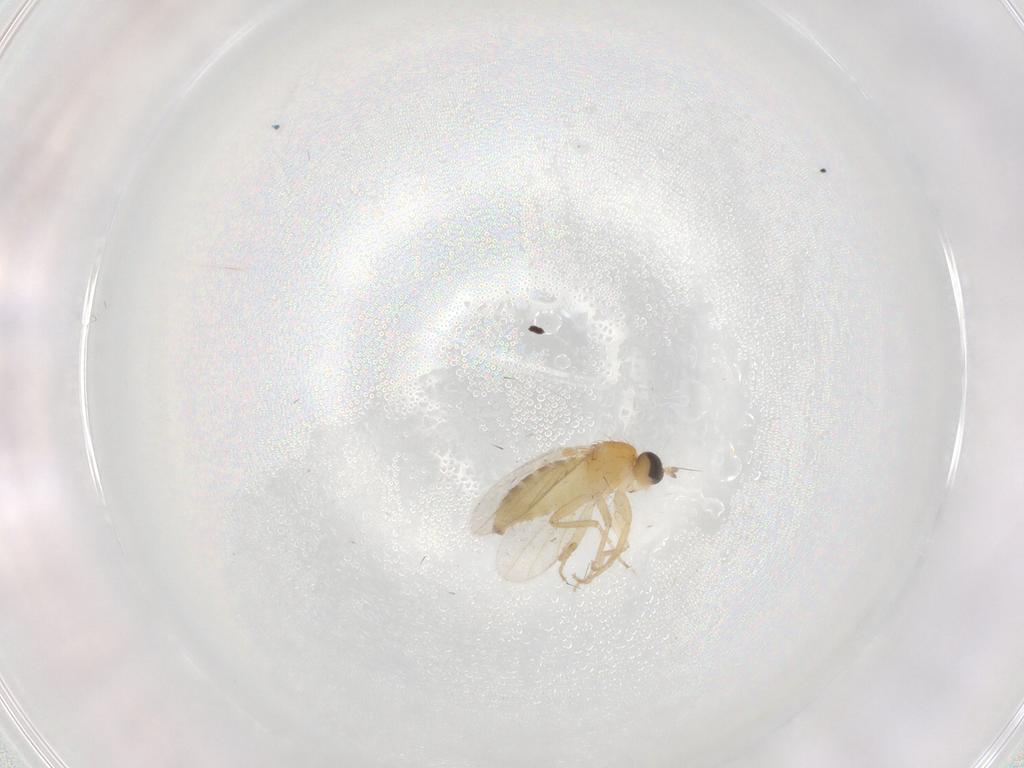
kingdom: Animalia
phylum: Arthropoda
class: Insecta
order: Diptera
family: Hybotidae
